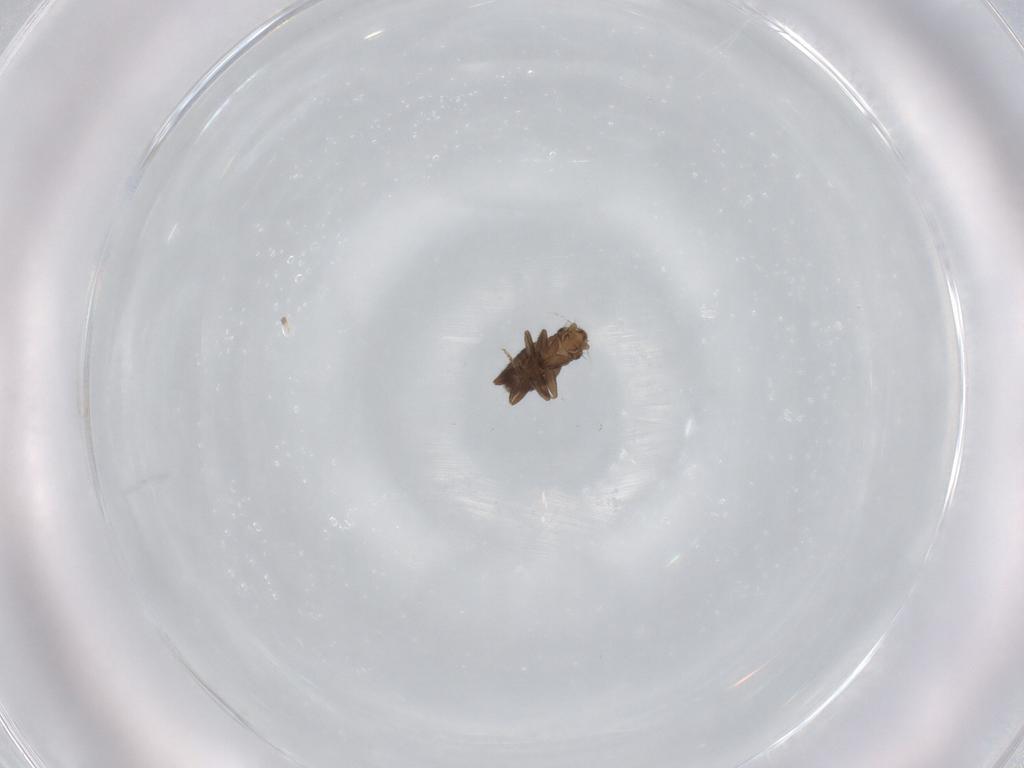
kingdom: Animalia
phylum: Arthropoda
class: Insecta
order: Diptera
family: Phoridae
